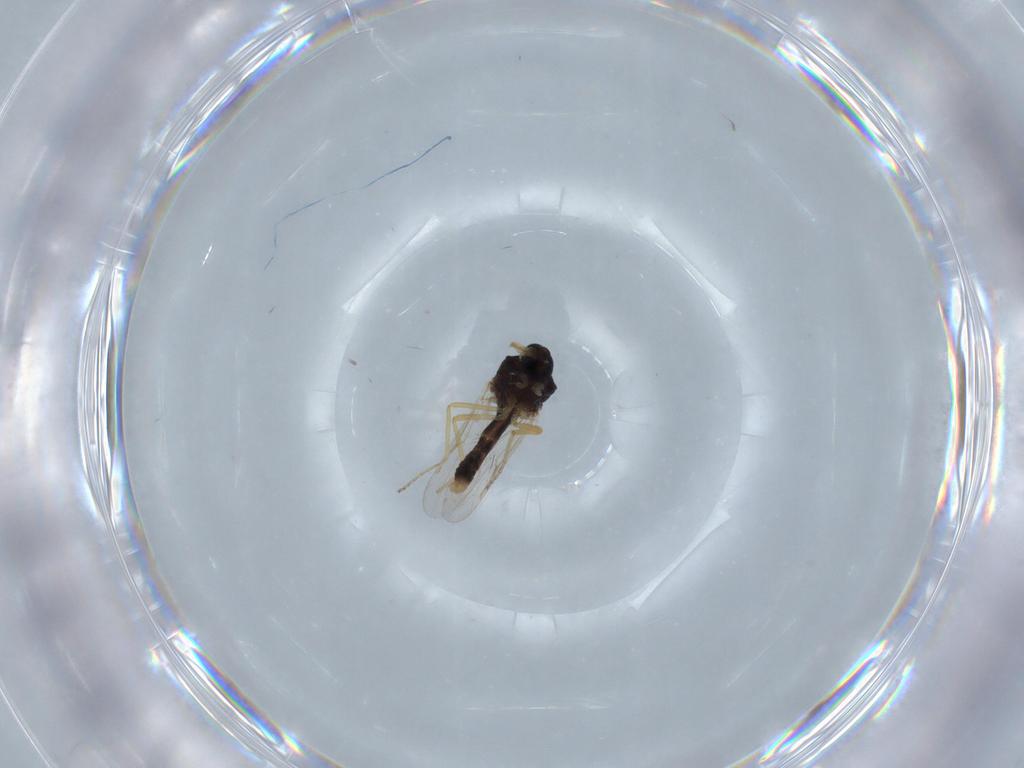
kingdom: Animalia
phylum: Arthropoda
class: Insecta
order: Diptera
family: Ceratopogonidae
